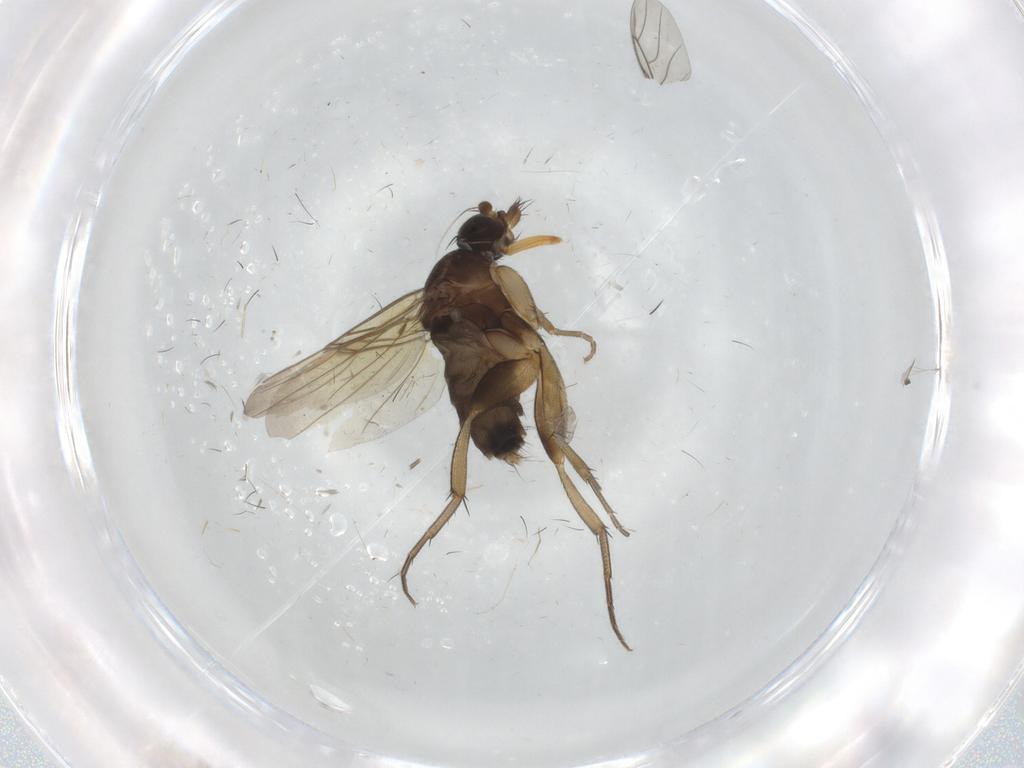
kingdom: Animalia
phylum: Arthropoda
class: Insecta
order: Diptera
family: Phoridae
